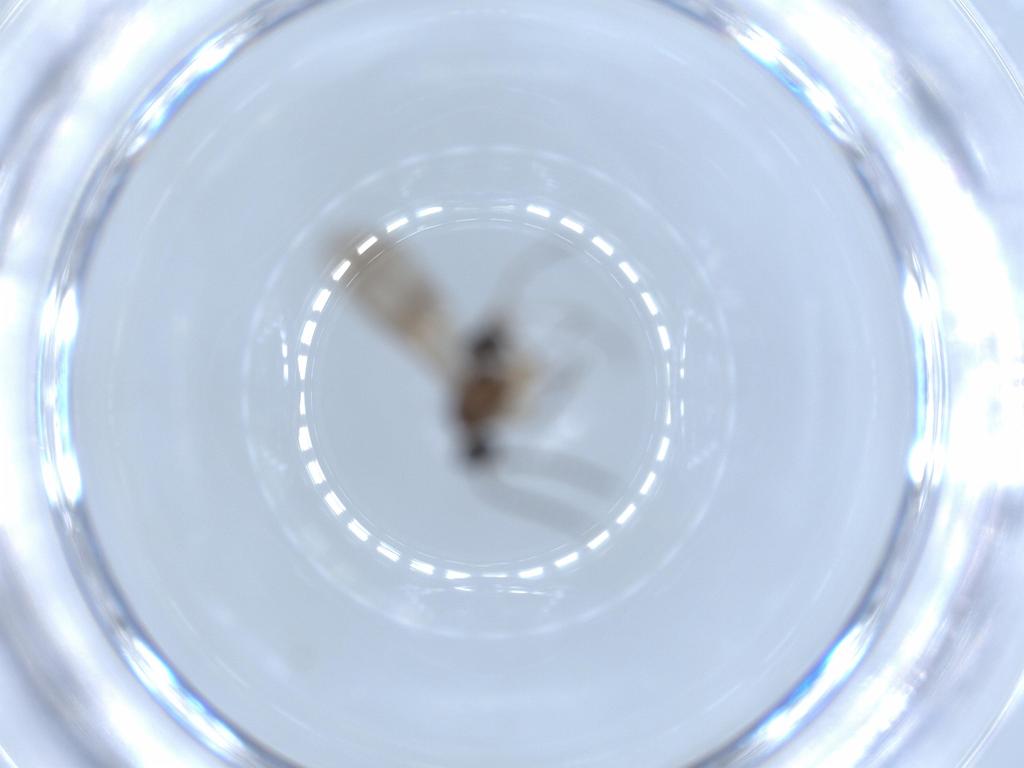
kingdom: Animalia
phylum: Arthropoda
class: Insecta
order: Diptera
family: Sciaridae
